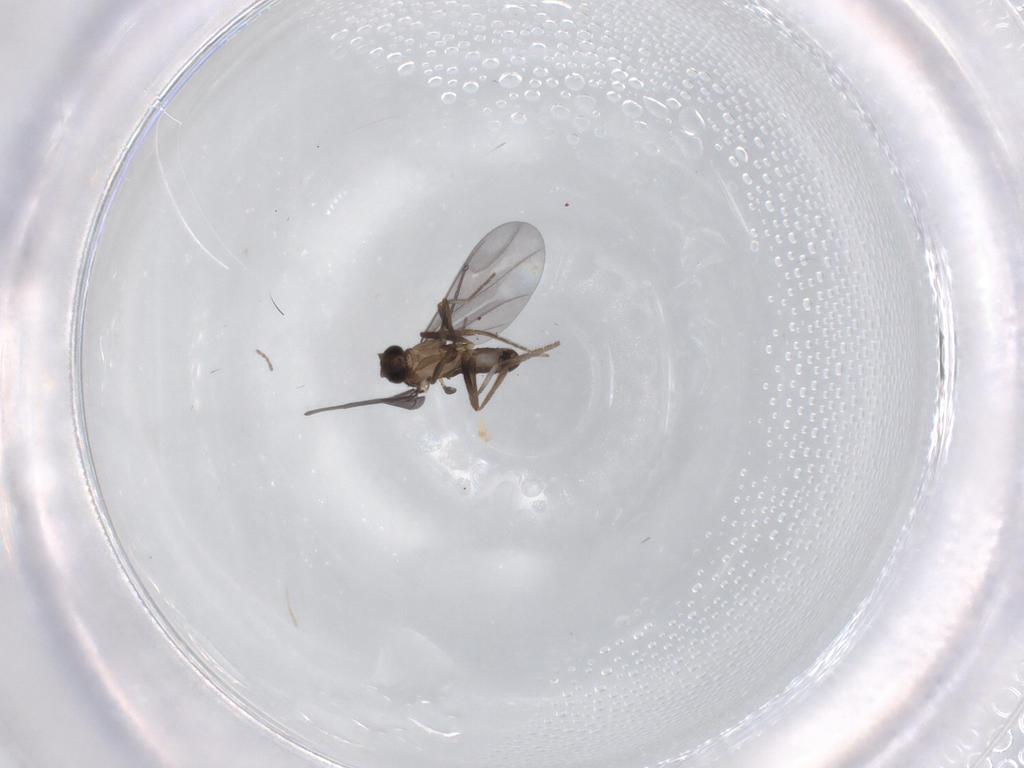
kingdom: Animalia
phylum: Arthropoda
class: Insecta
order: Diptera
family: Phoridae
